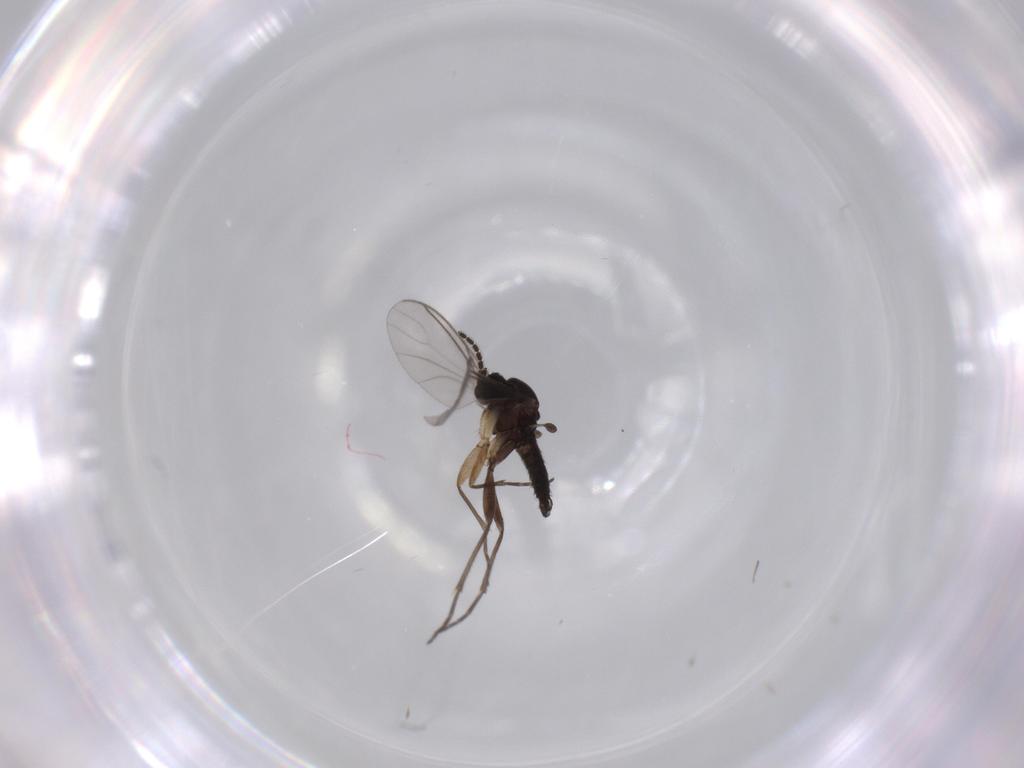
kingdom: Animalia
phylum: Arthropoda
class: Insecta
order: Diptera
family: Sciaridae
